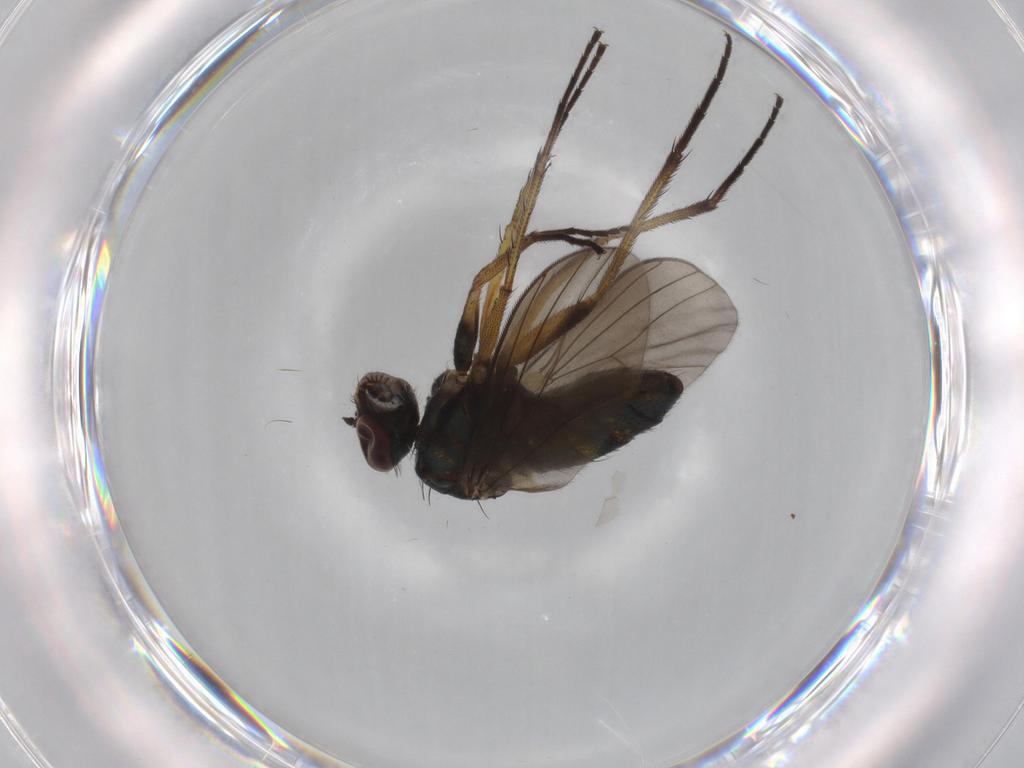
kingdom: Animalia
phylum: Arthropoda
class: Insecta
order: Diptera
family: Dolichopodidae
